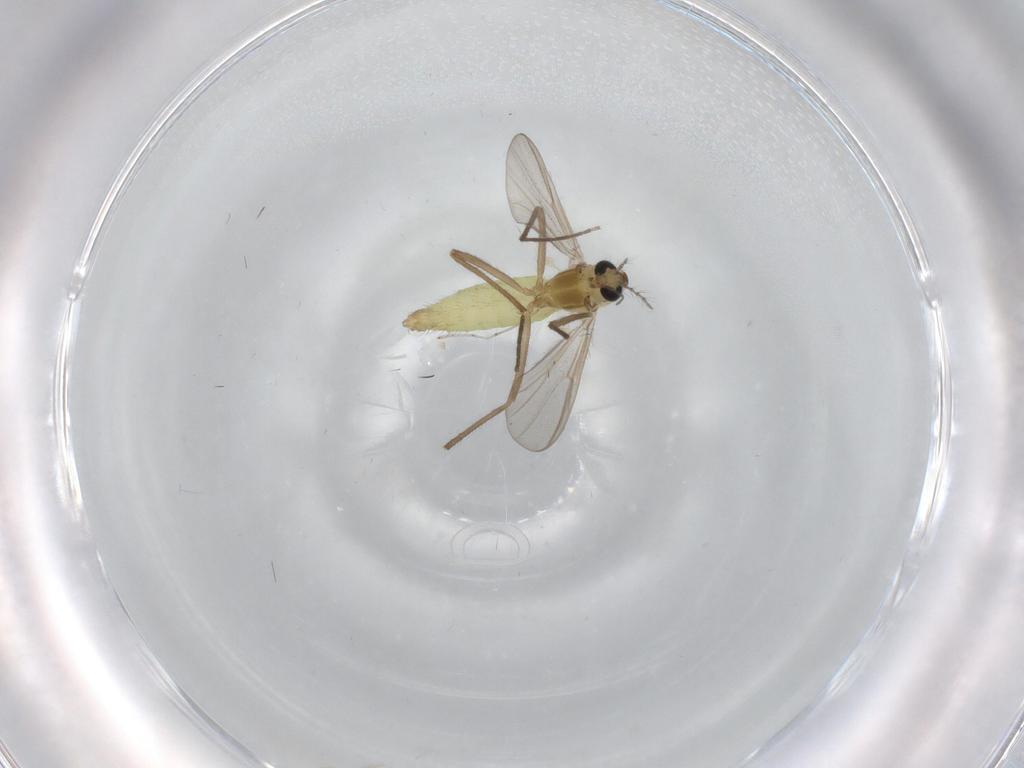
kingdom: Animalia
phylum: Arthropoda
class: Insecta
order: Diptera
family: Chironomidae
